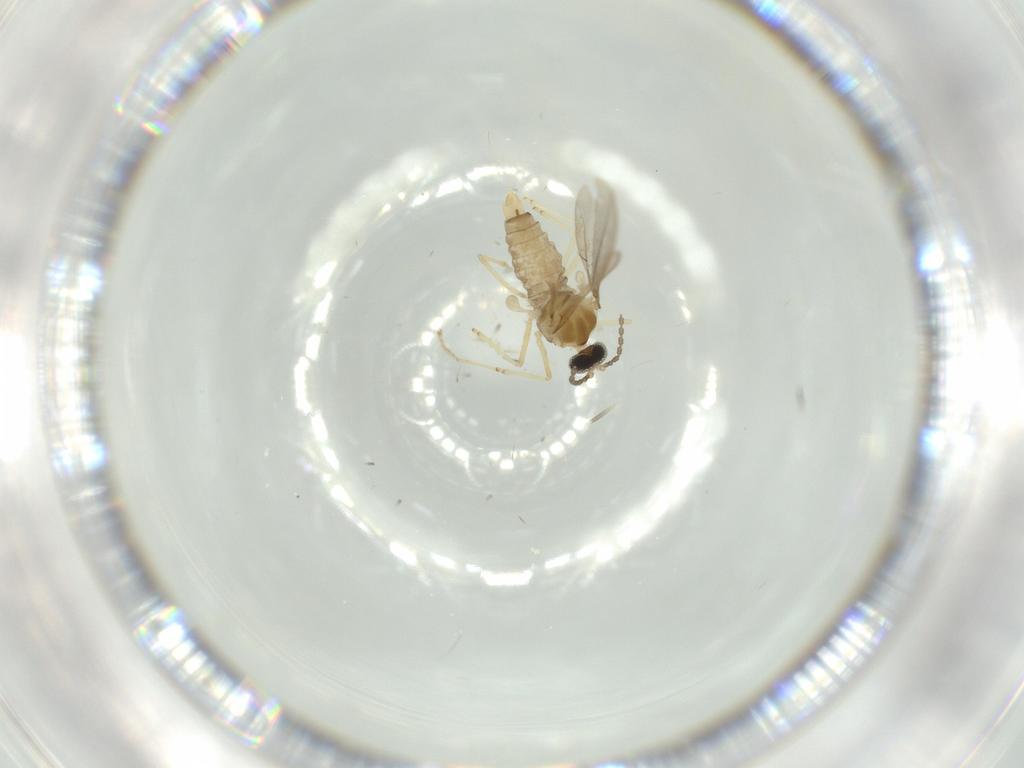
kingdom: Animalia
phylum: Arthropoda
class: Insecta
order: Diptera
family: Cecidomyiidae
